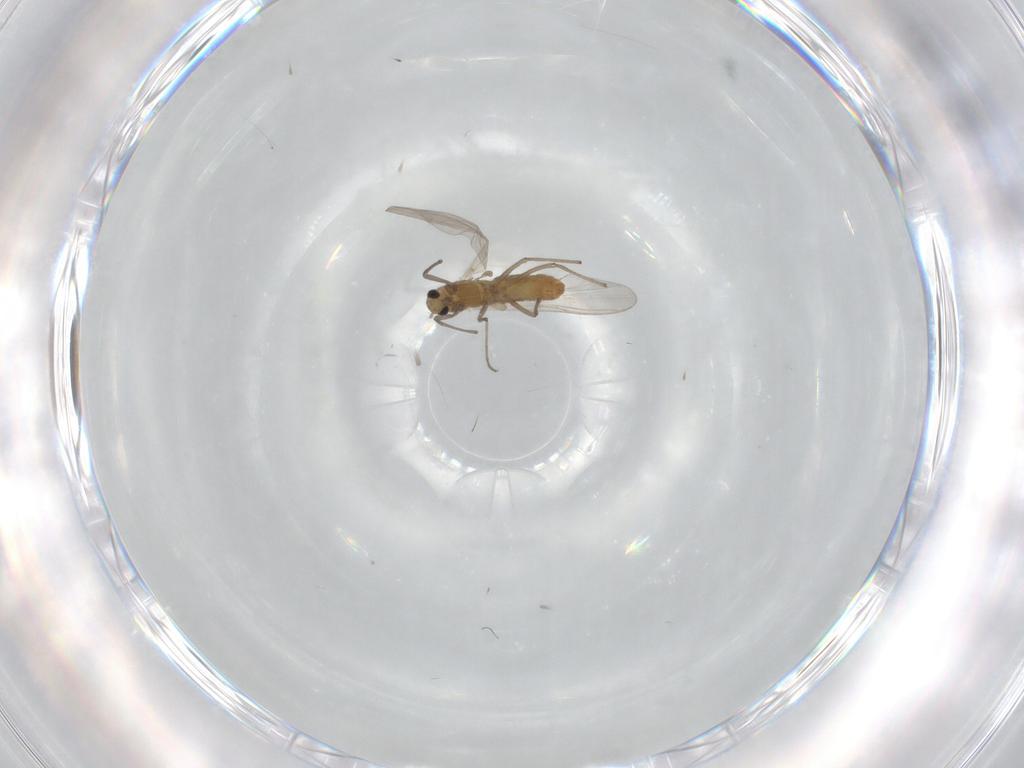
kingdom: Animalia
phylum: Arthropoda
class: Insecta
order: Diptera
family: Chironomidae
